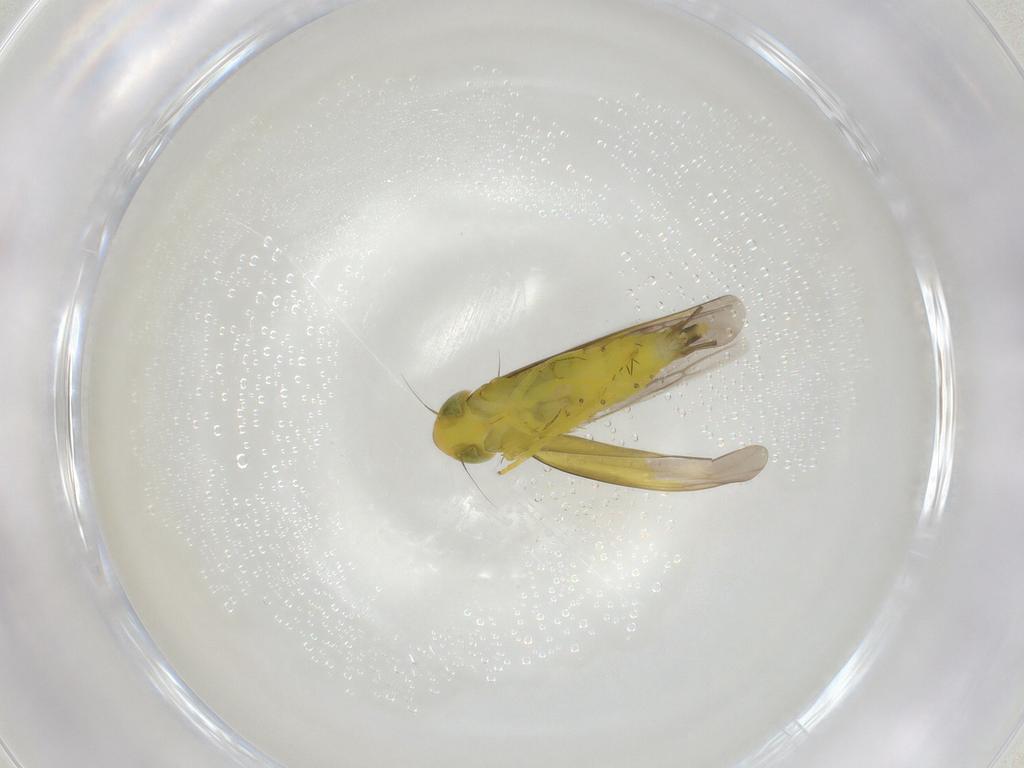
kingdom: Animalia
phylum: Arthropoda
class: Insecta
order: Hemiptera
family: Cicadellidae
